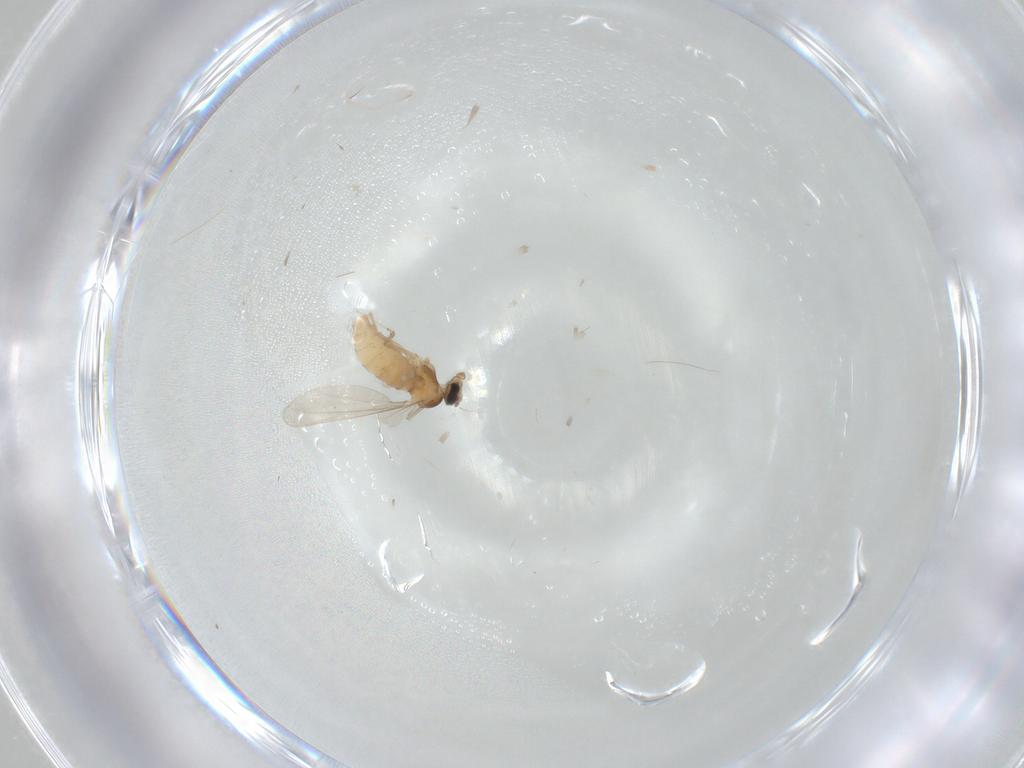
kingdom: Animalia
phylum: Arthropoda
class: Insecta
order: Diptera
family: Cecidomyiidae
